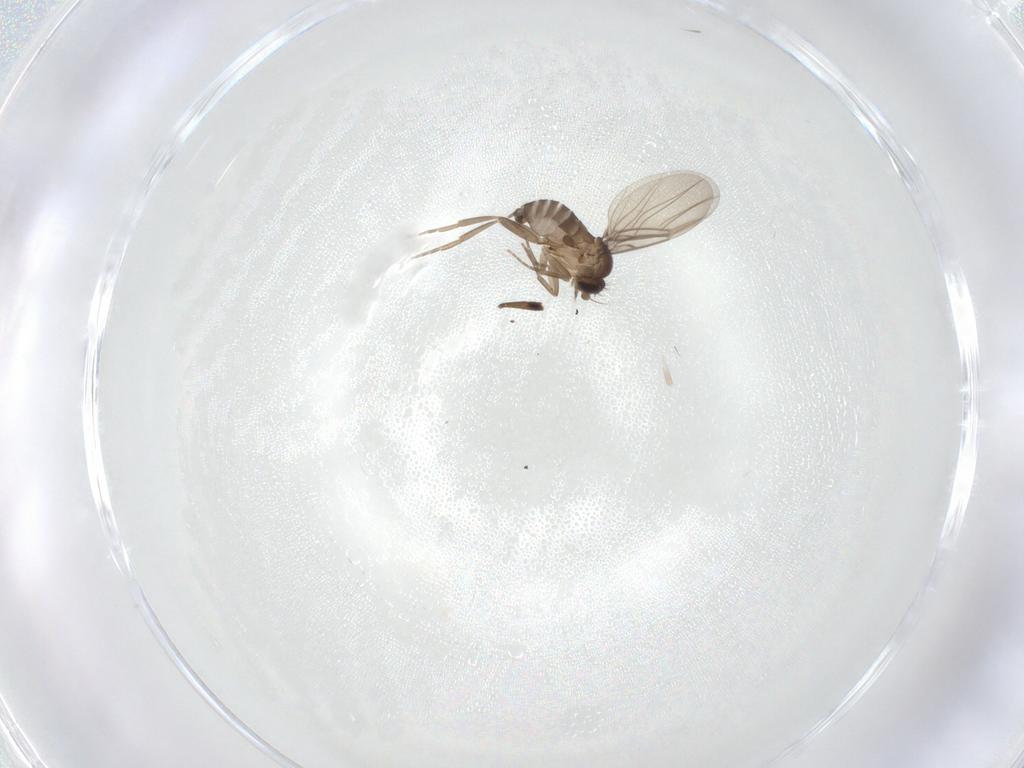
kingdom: Animalia
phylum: Arthropoda
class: Insecta
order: Diptera
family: Phoridae
